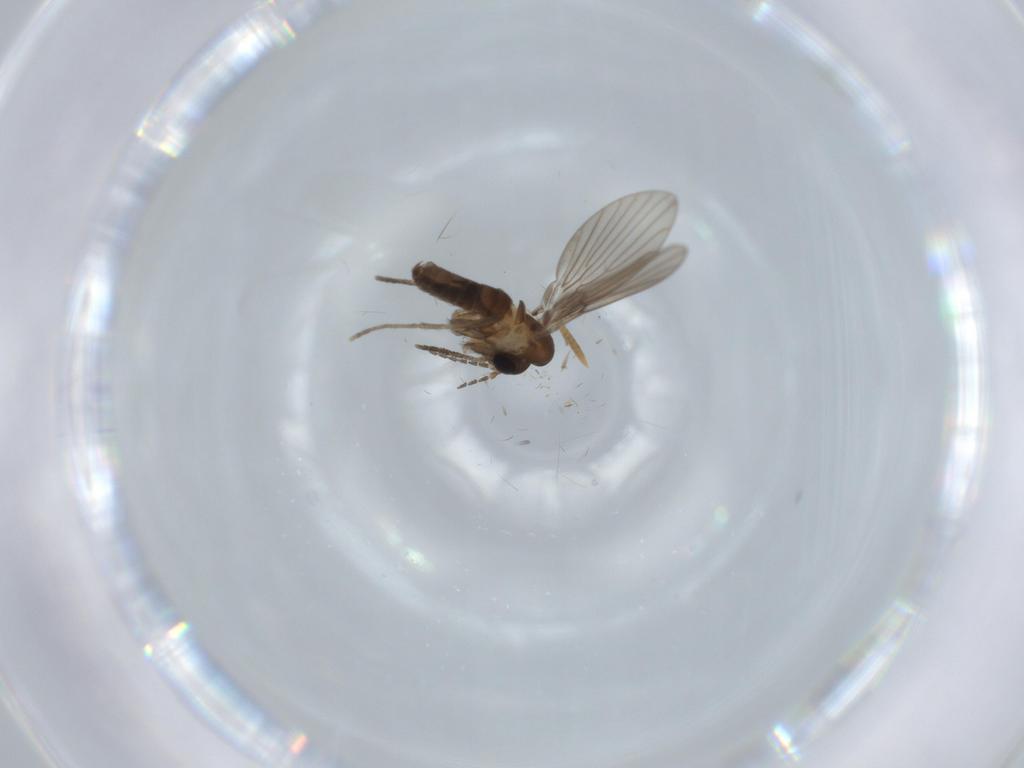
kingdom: Animalia
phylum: Arthropoda
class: Insecta
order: Diptera
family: Psychodidae
